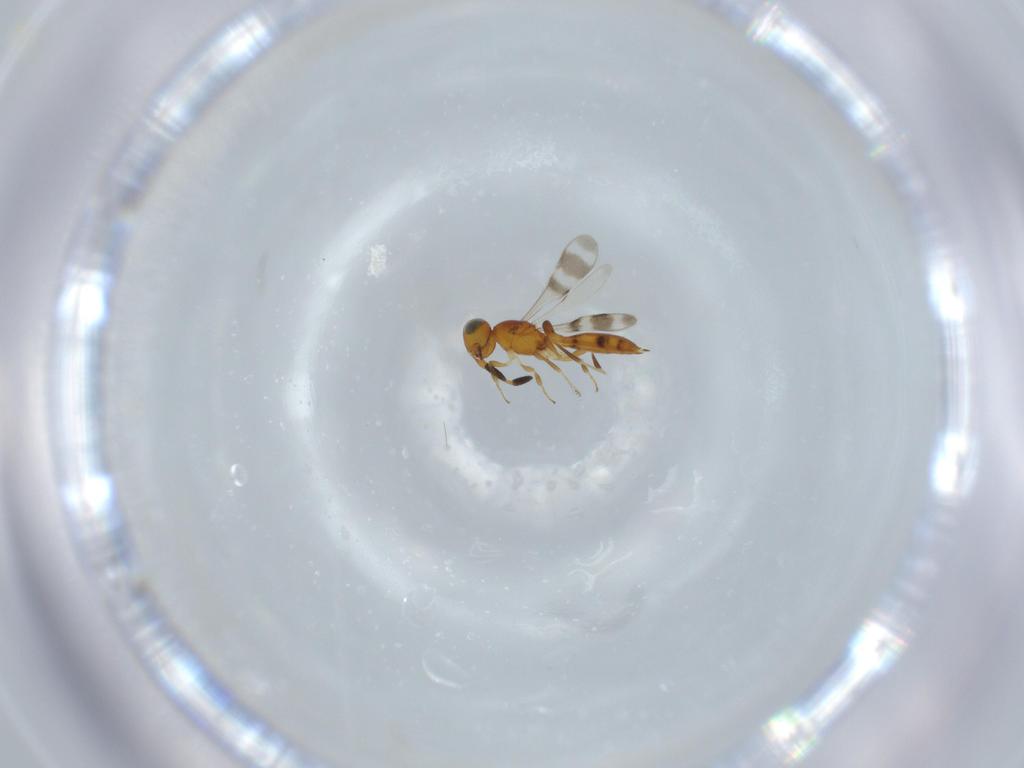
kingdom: Animalia
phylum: Arthropoda
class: Insecta
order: Hymenoptera
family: Scelionidae
